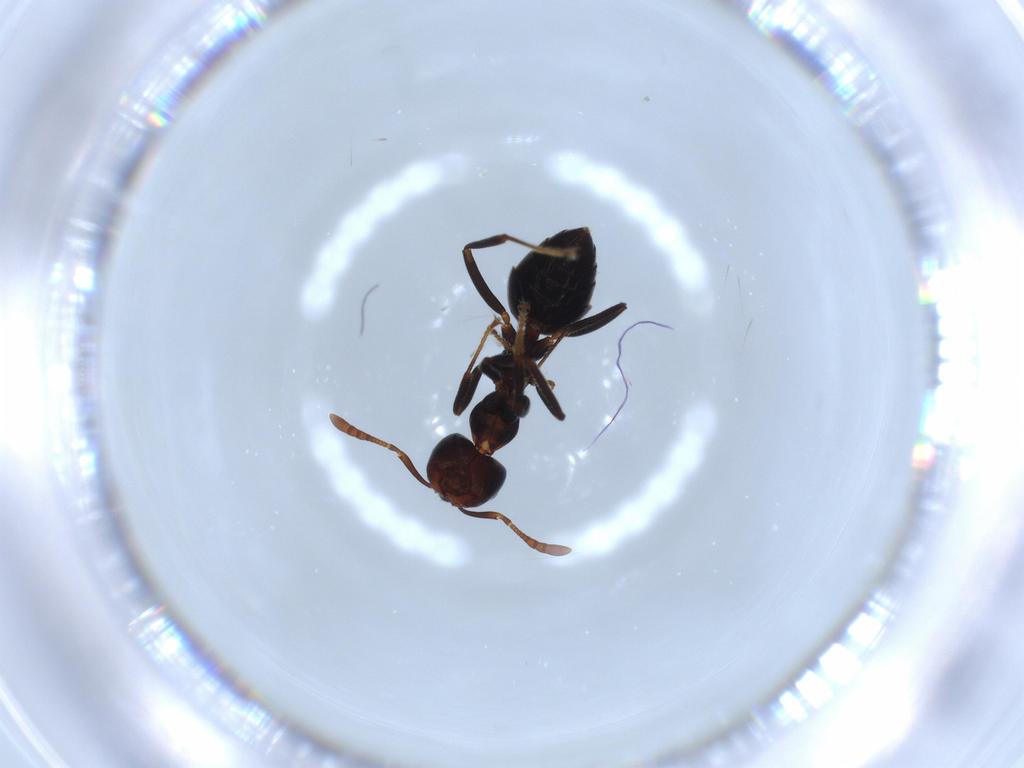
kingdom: Animalia
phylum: Arthropoda
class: Insecta
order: Hymenoptera
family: Formicidae
